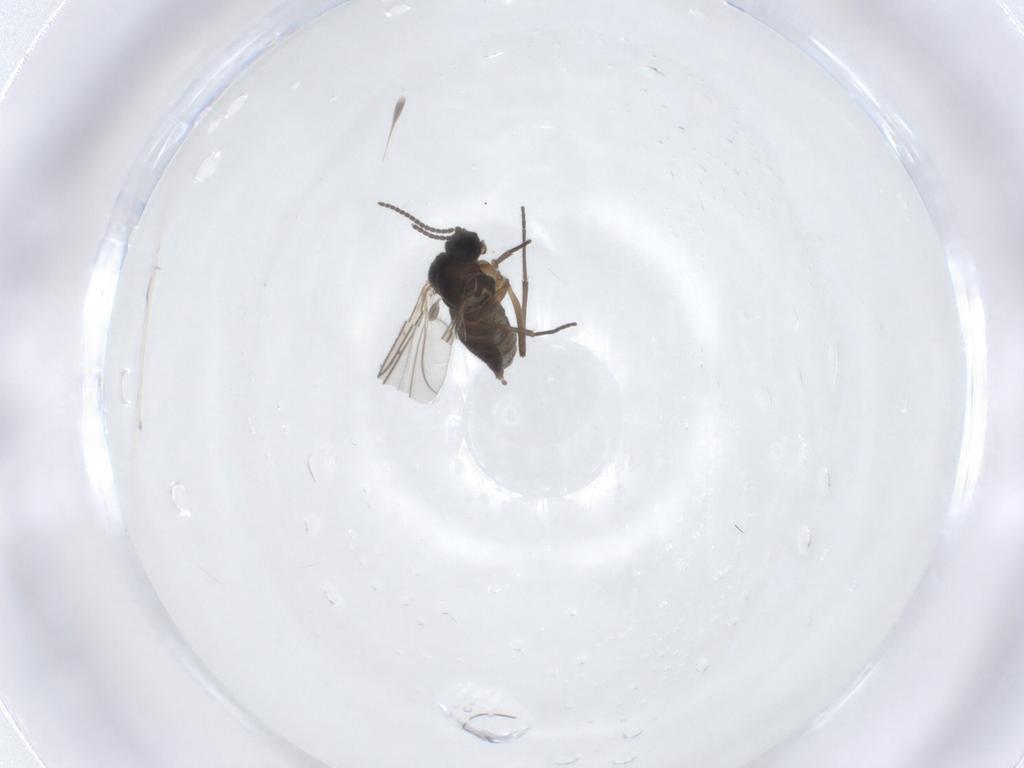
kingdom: Animalia
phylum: Arthropoda
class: Insecta
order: Diptera
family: Sciaridae
